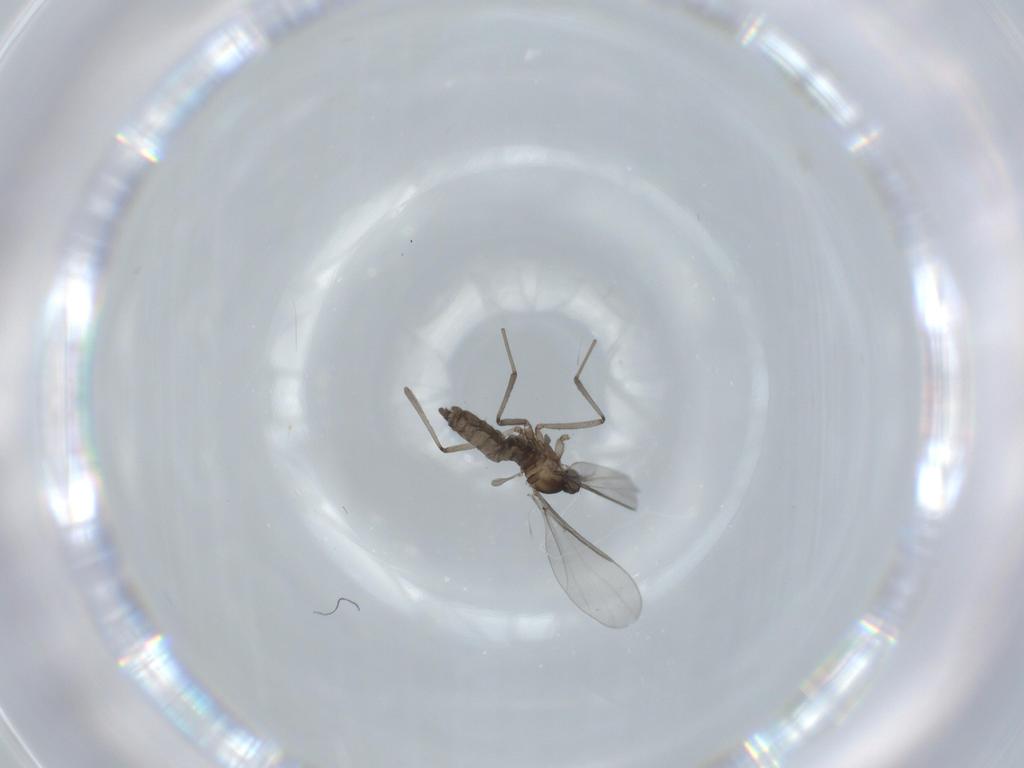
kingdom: Animalia
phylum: Arthropoda
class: Insecta
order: Diptera
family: Cecidomyiidae
